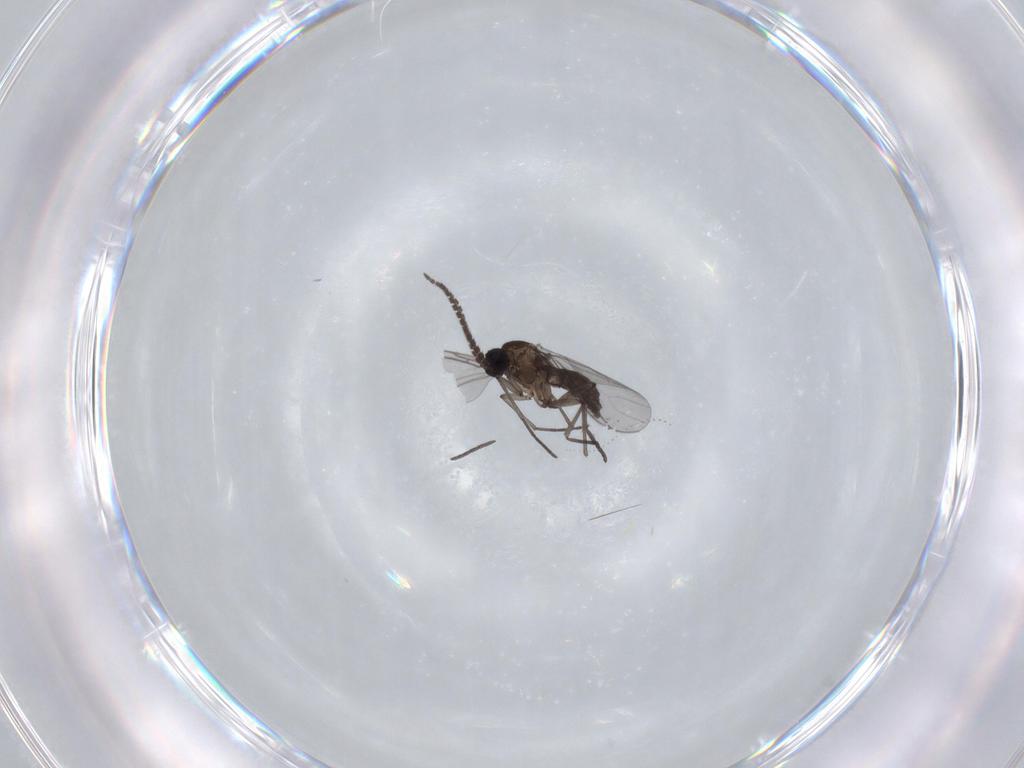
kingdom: Animalia
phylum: Arthropoda
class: Insecta
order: Diptera
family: Sciaridae
